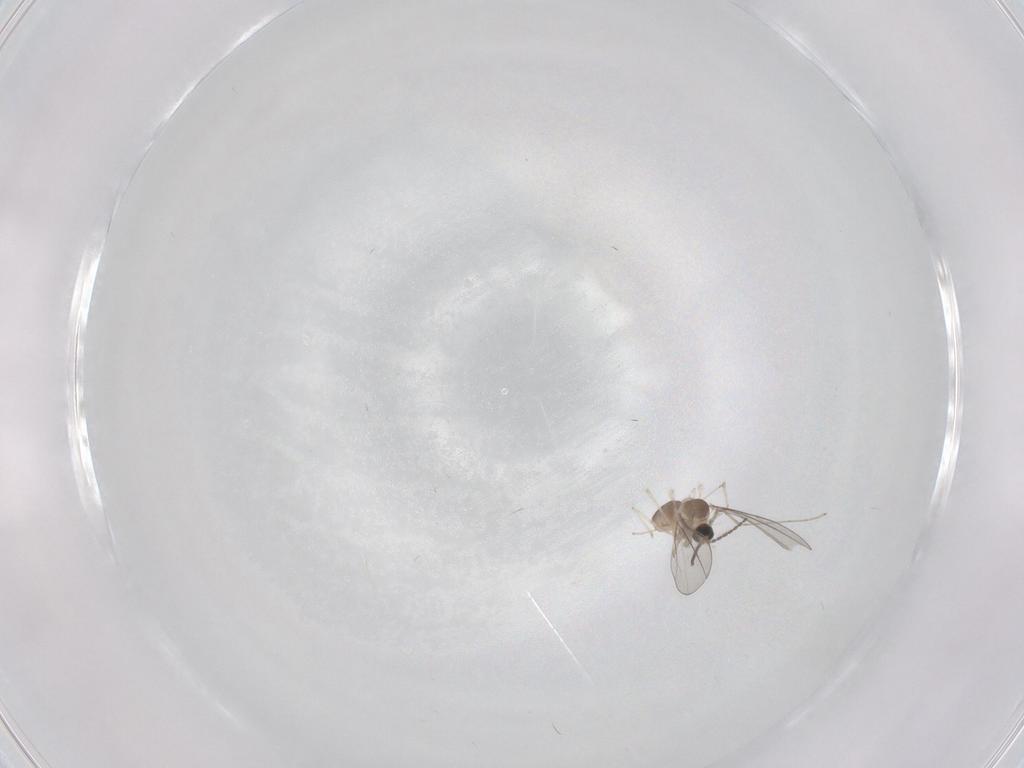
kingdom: Animalia
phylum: Arthropoda
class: Insecta
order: Diptera
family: Cecidomyiidae
